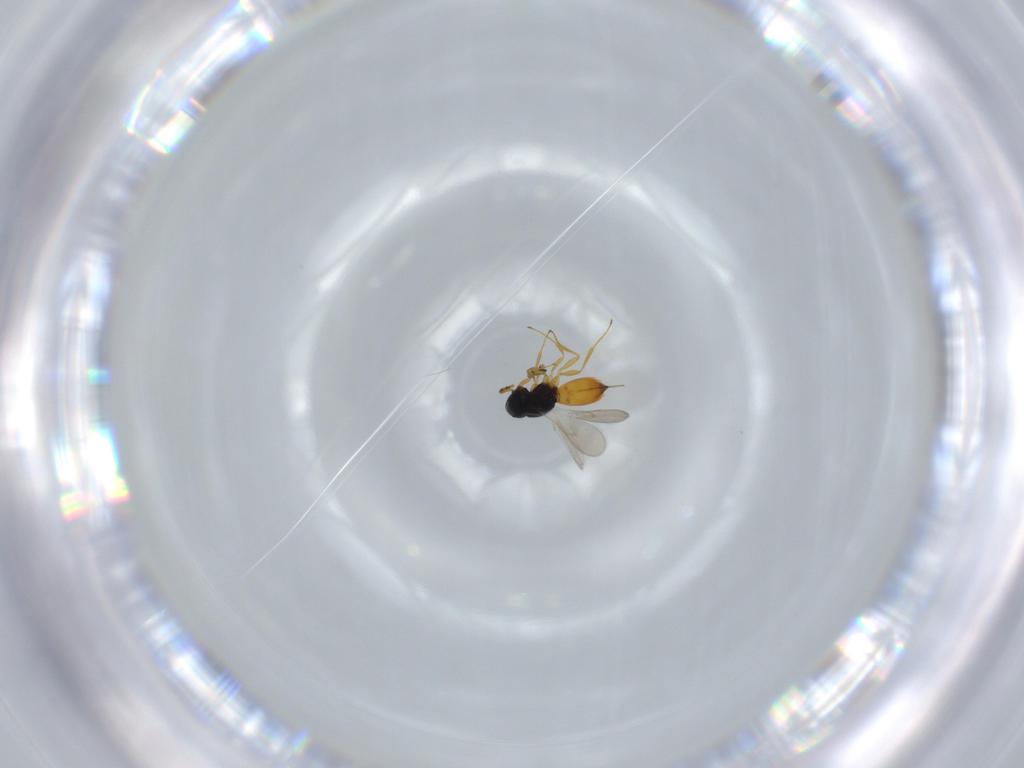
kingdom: Animalia
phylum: Arthropoda
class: Insecta
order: Hymenoptera
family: Scelionidae
